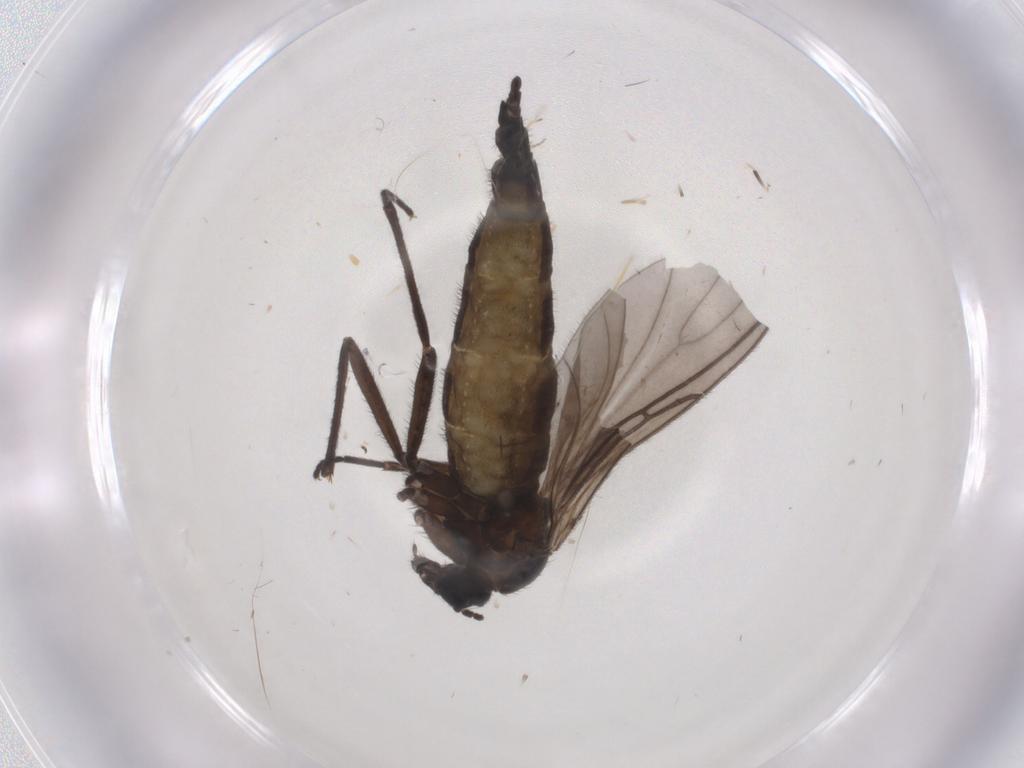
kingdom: Animalia
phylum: Arthropoda
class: Insecta
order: Diptera
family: Sciaridae
